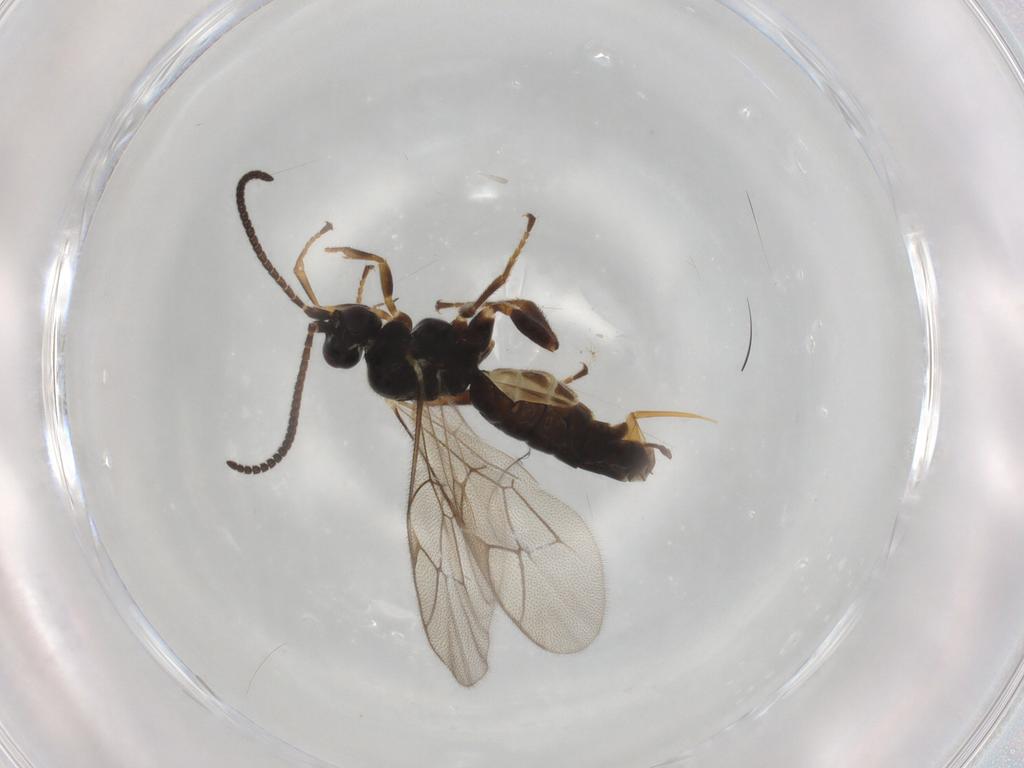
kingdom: Animalia
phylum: Arthropoda
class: Insecta
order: Hymenoptera
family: Ichneumonidae
